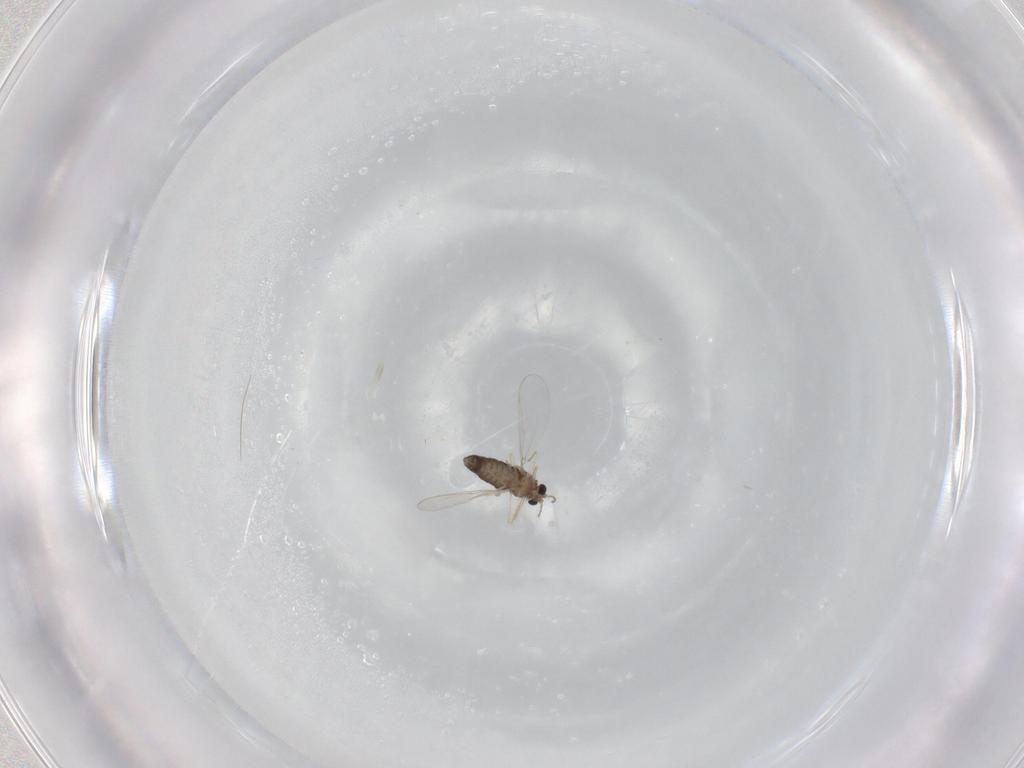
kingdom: Animalia
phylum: Arthropoda
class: Insecta
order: Diptera
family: Chironomidae
